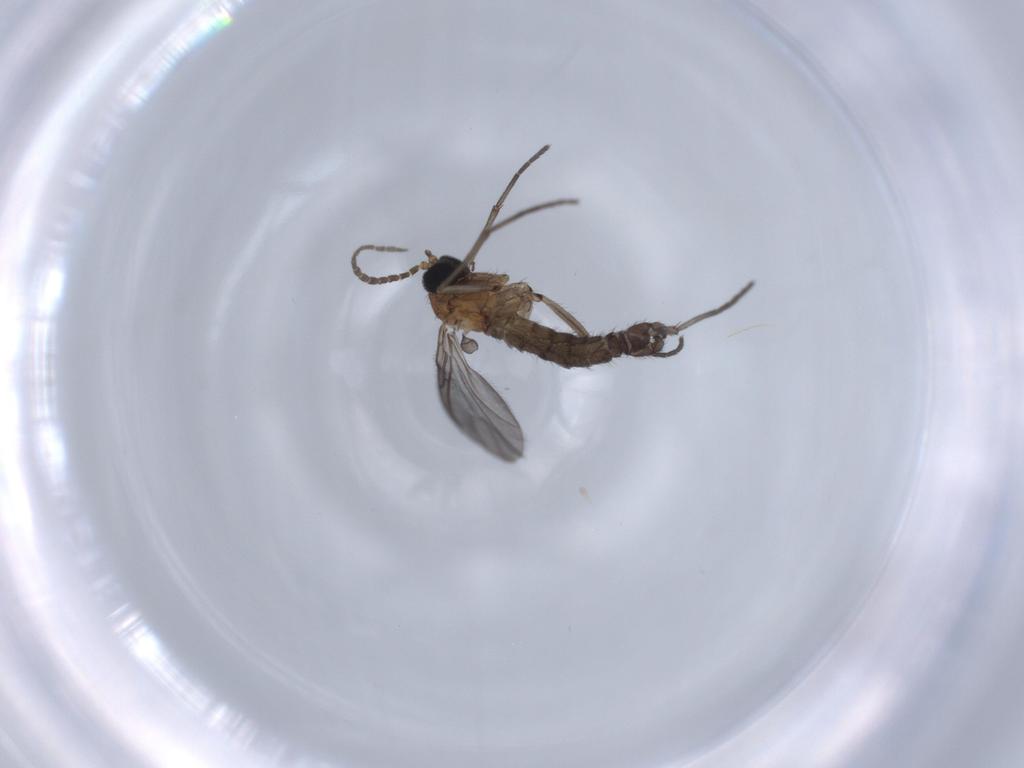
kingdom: Animalia
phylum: Arthropoda
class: Insecta
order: Diptera
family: Sciaridae
